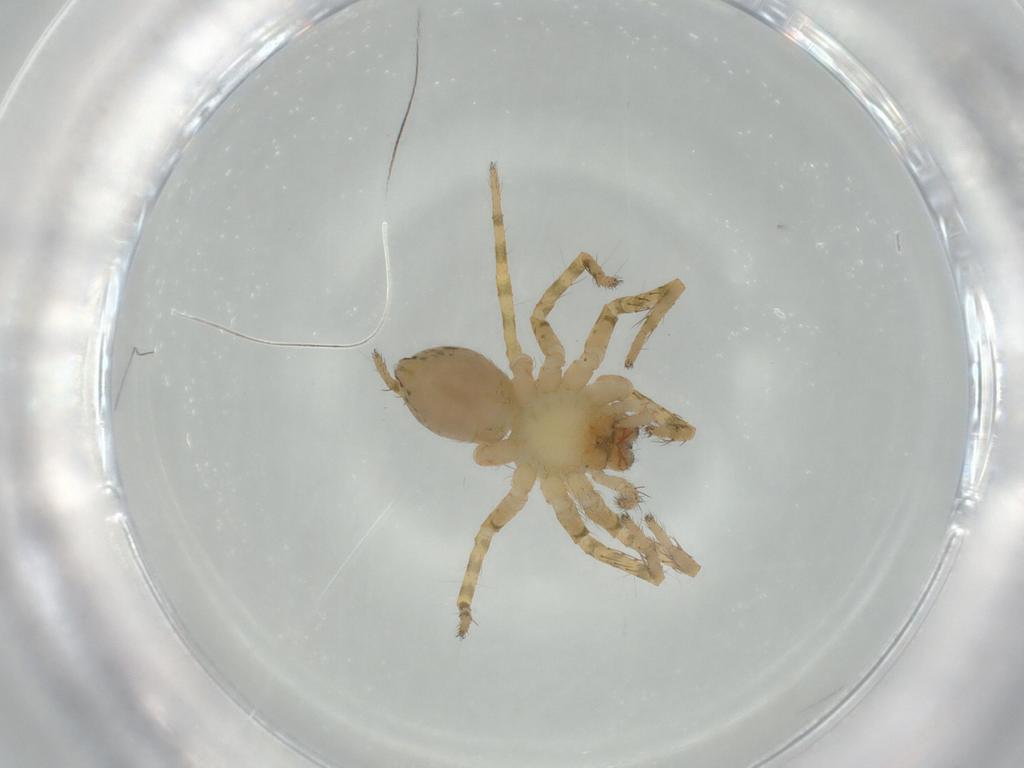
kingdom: Animalia
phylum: Arthropoda
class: Arachnida
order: Araneae
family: Ctenidae
